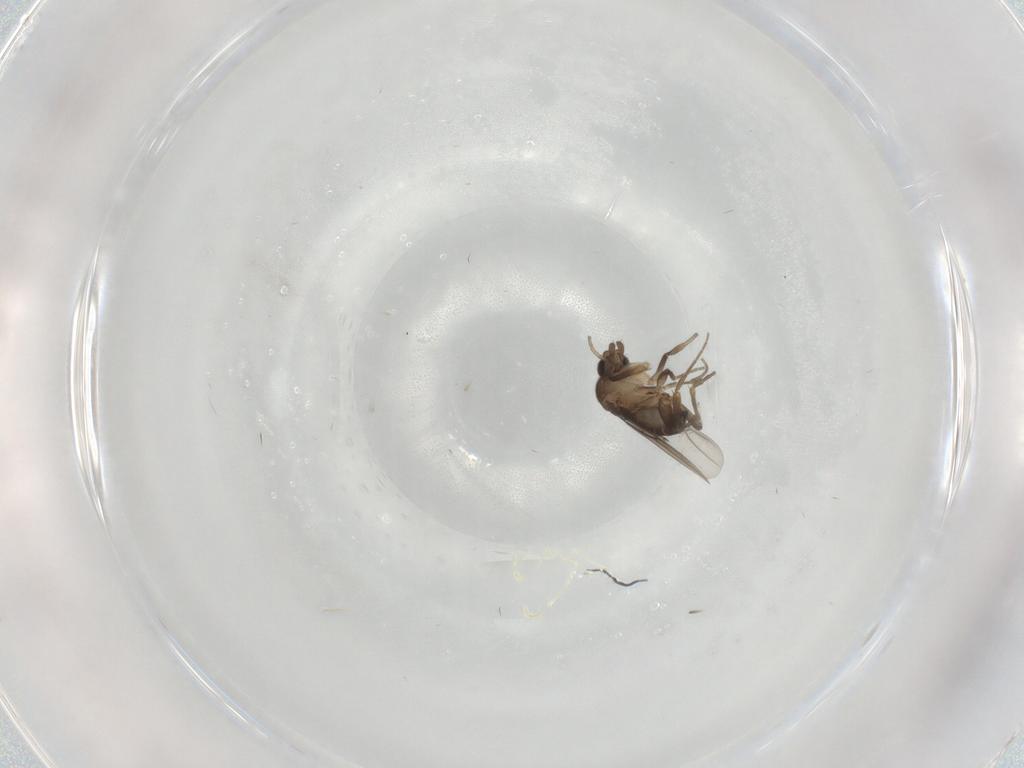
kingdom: Animalia
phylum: Arthropoda
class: Insecta
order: Diptera
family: Phoridae
